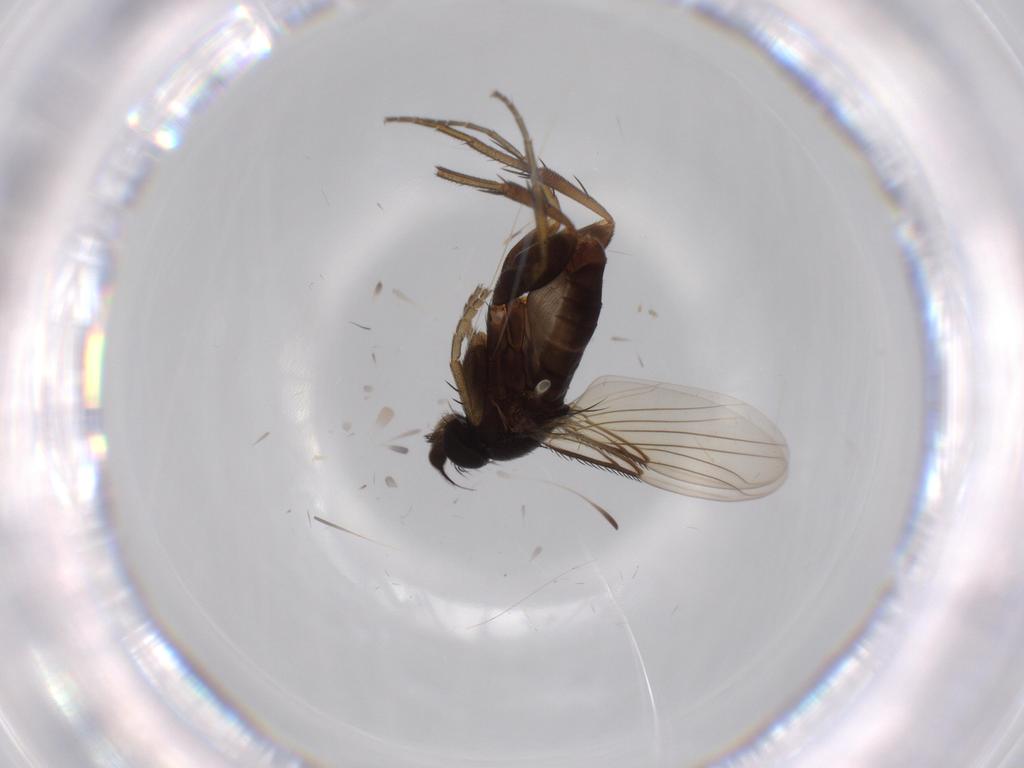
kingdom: Animalia
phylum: Arthropoda
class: Insecta
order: Diptera
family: Phoridae
